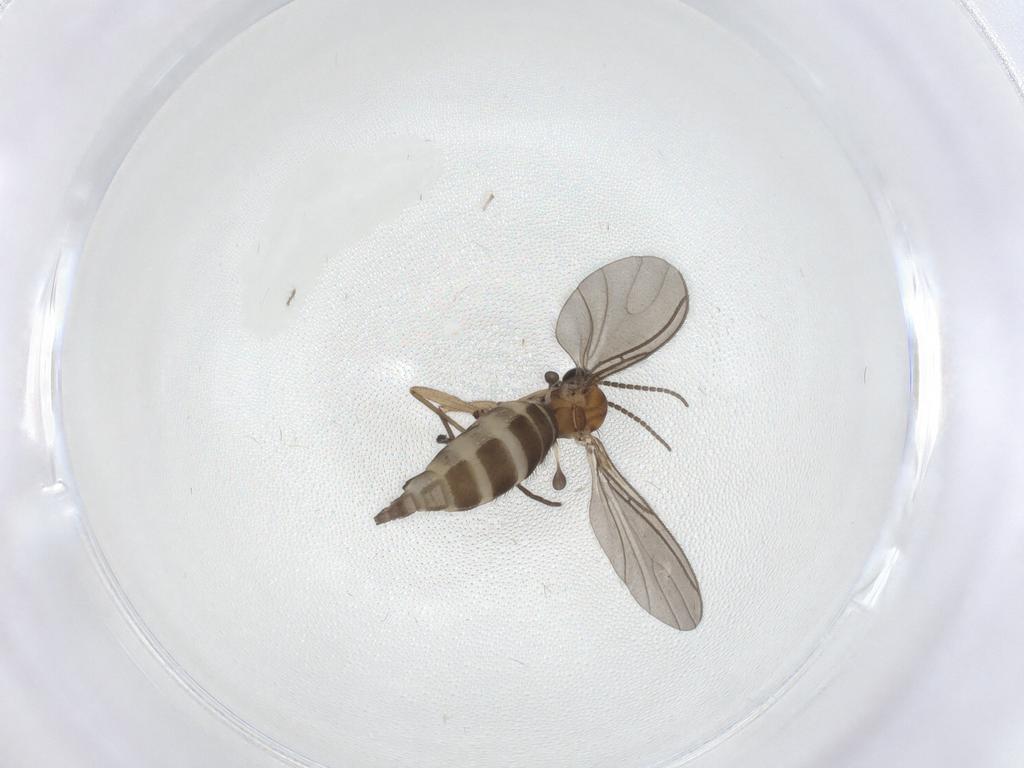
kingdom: Animalia
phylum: Arthropoda
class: Insecta
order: Diptera
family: Sciaridae
